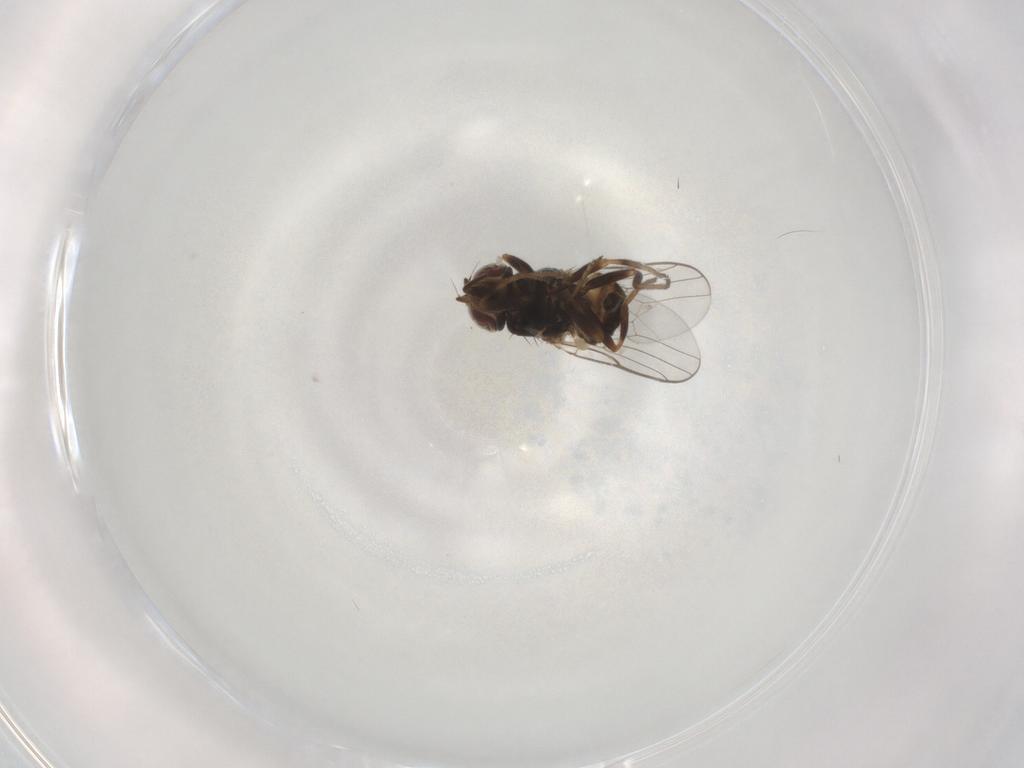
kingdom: Animalia
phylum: Arthropoda
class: Insecta
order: Diptera
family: Chloropidae
